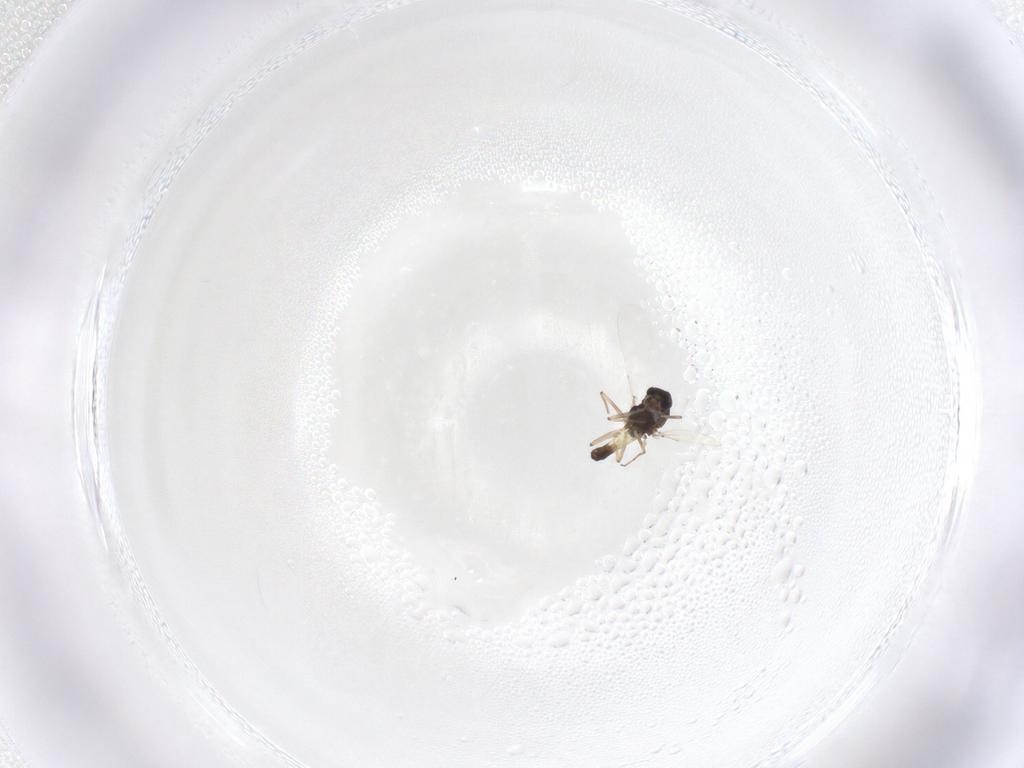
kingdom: Animalia
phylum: Arthropoda
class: Insecta
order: Diptera
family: Chironomidae
